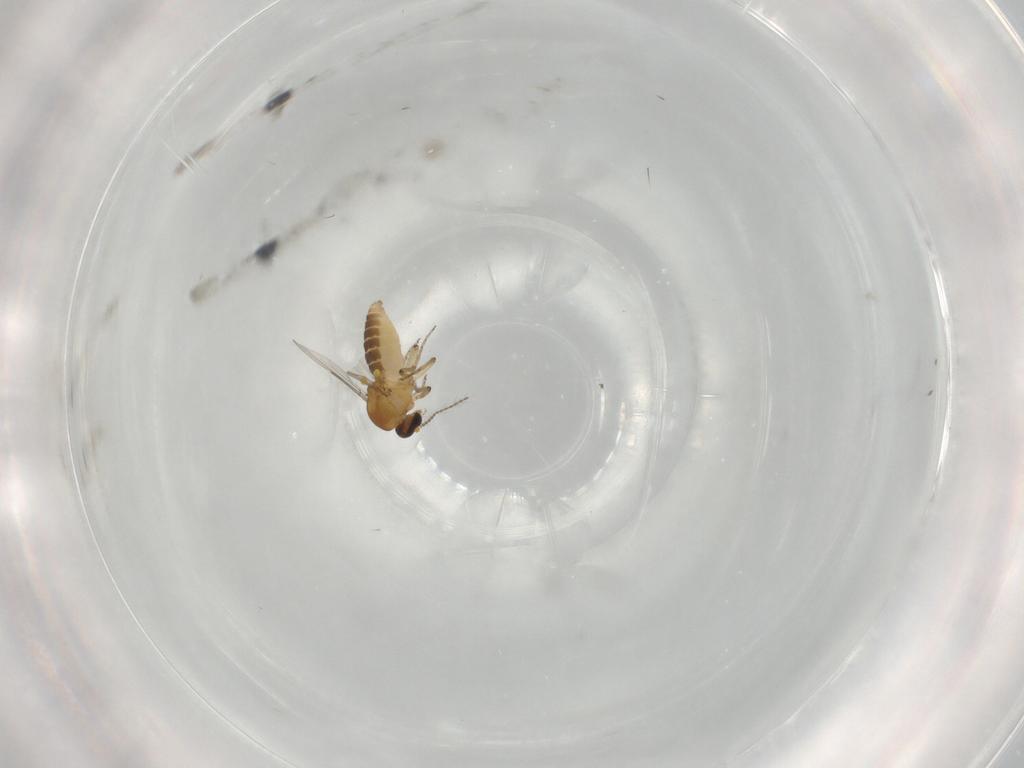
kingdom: Animalia
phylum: Arthropoda
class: Insecta
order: Diptera
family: Ceratopogonidae
